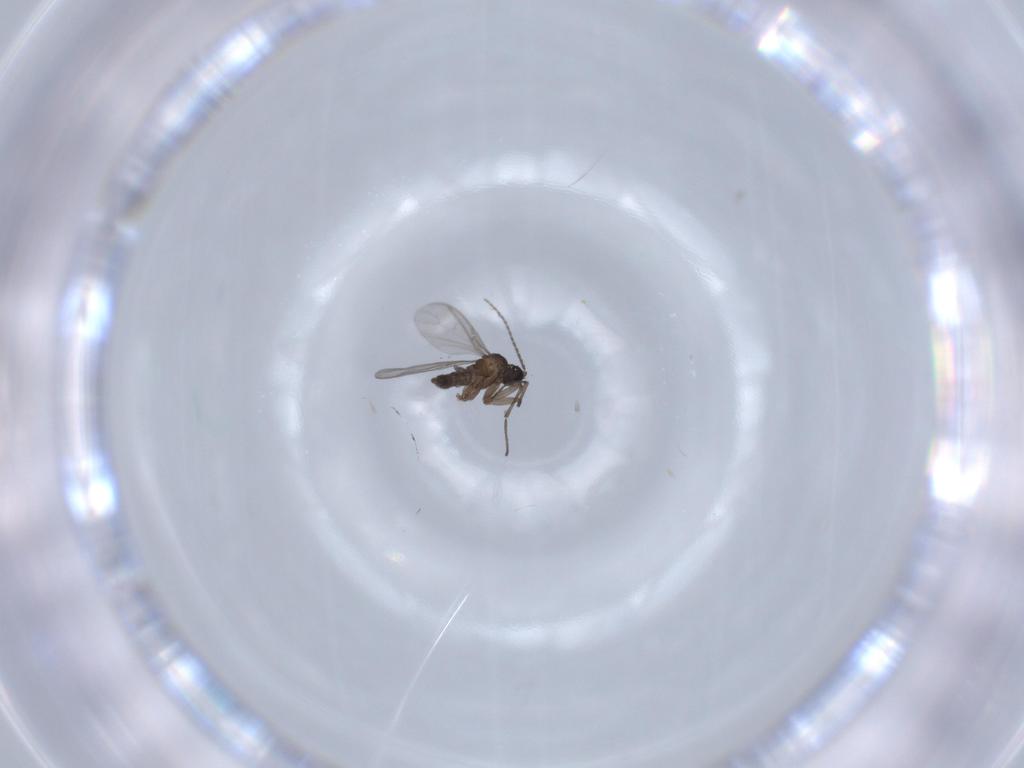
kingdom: Animalia
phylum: Arthropoda
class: Insecta
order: Diptera
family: Sciaridae
